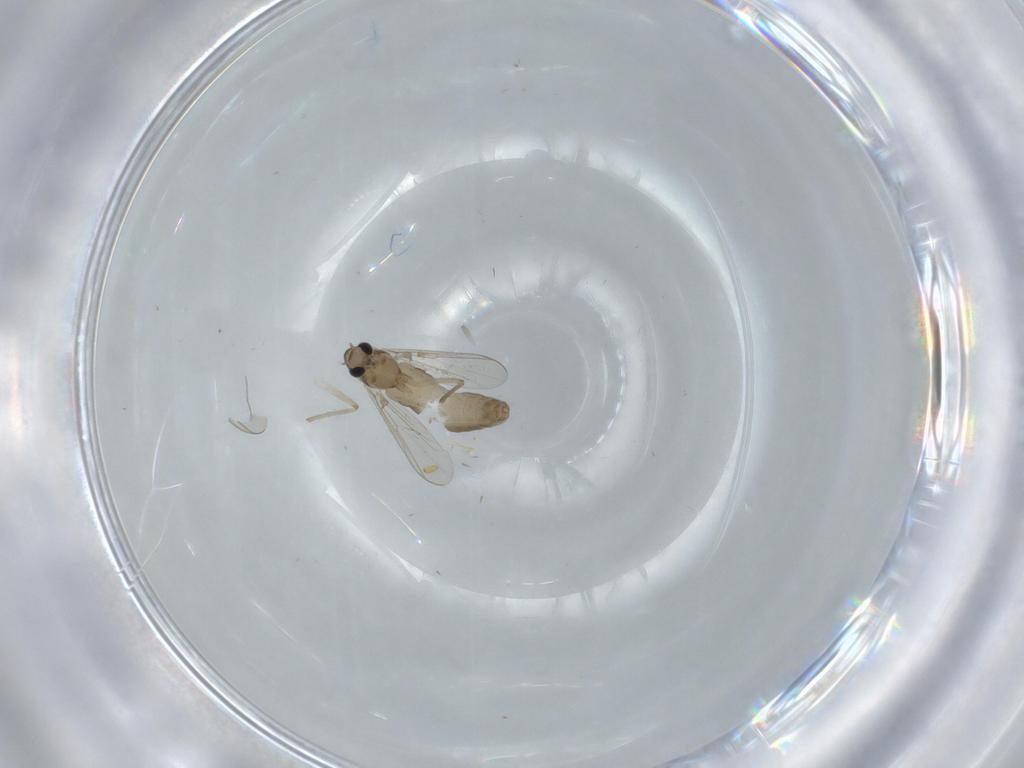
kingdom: Animalia
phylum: Arthropoda
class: Insecta
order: Diptera
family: Chironomidae
